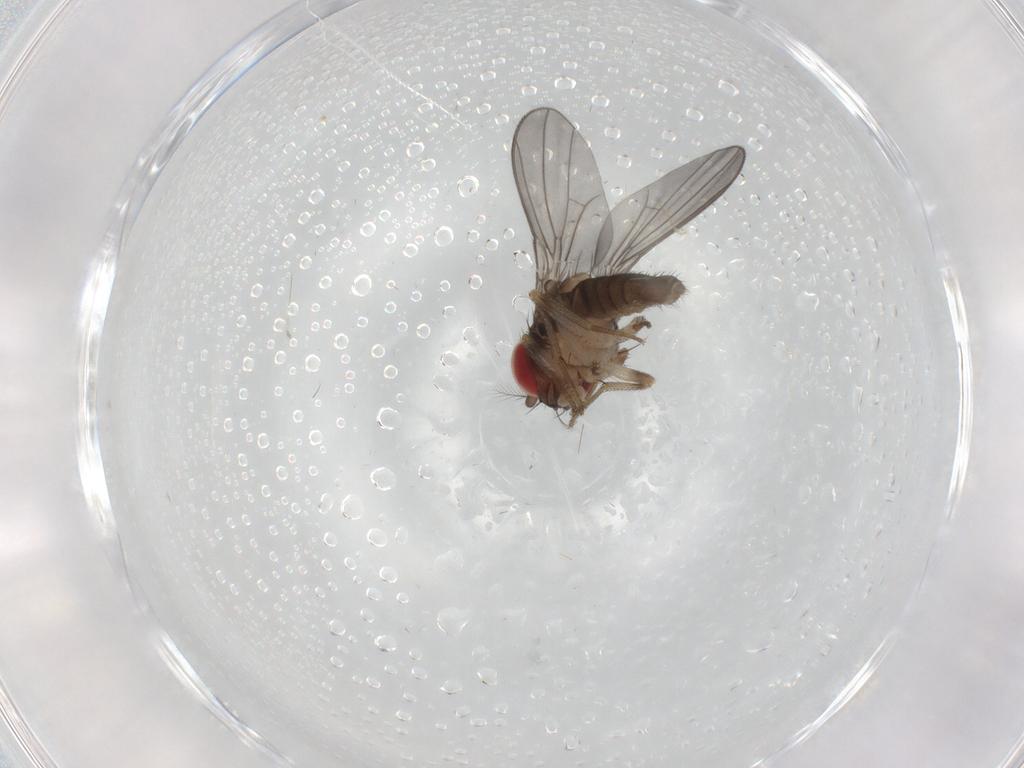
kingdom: Animalia
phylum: Arthropoda
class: Insecta
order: Diptera
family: Drosophilidae
